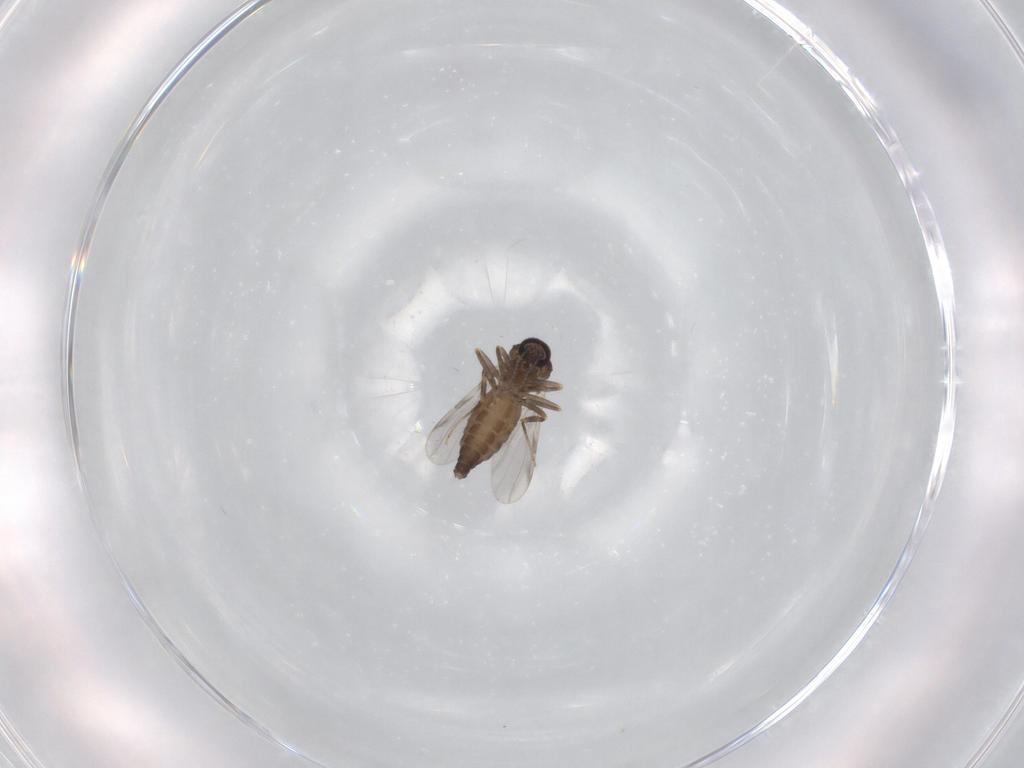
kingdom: Animalia
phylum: Arthropoda
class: Insecta
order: Diptera
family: Ceratopogonidae
